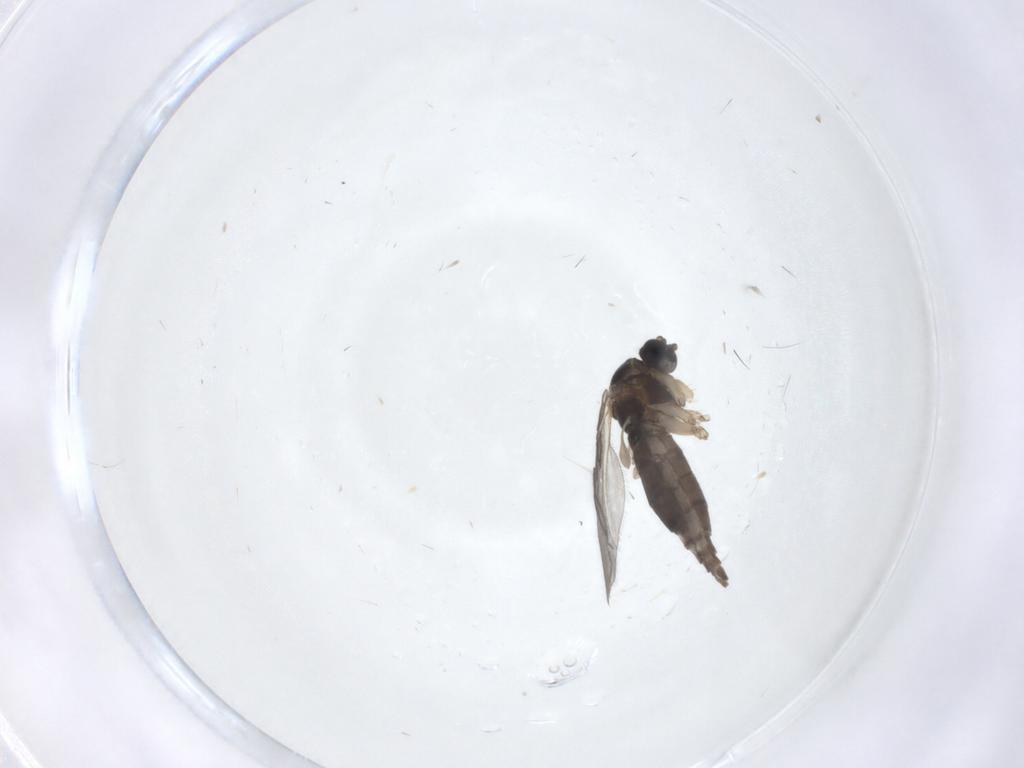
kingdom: Animalia
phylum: Arthropoda
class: Insecta
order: Diptera
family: Sciaridae
